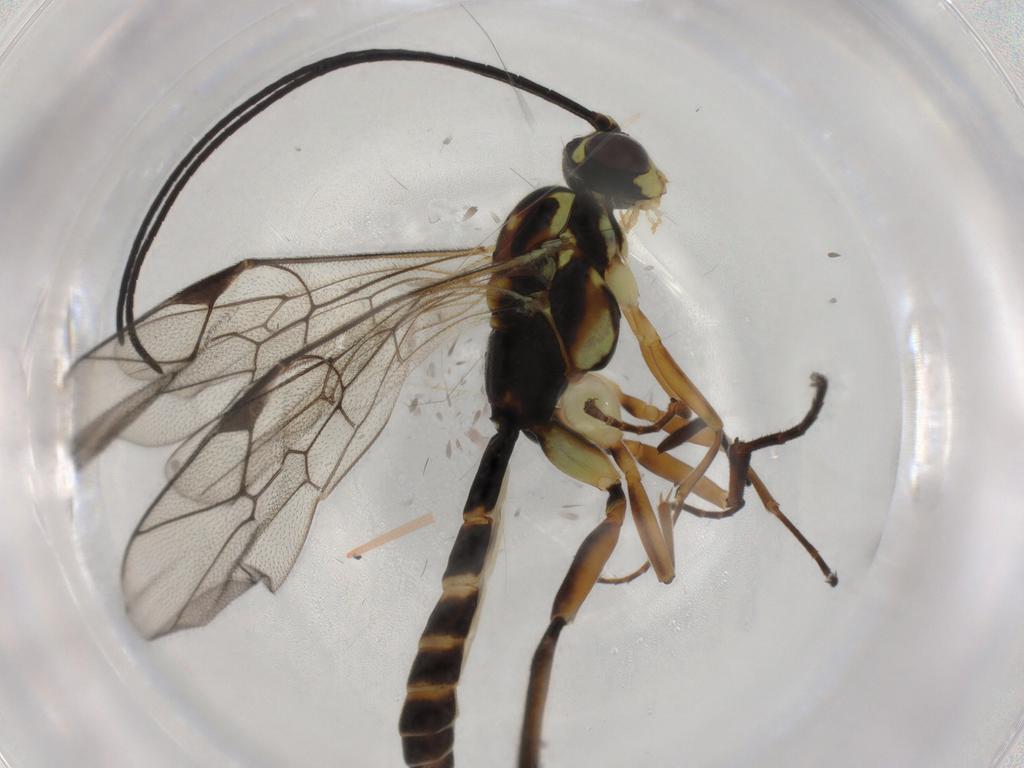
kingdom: Animalia
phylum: Arthropoda
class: Insecta
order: Hymenoptera
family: Ichneumonidae
